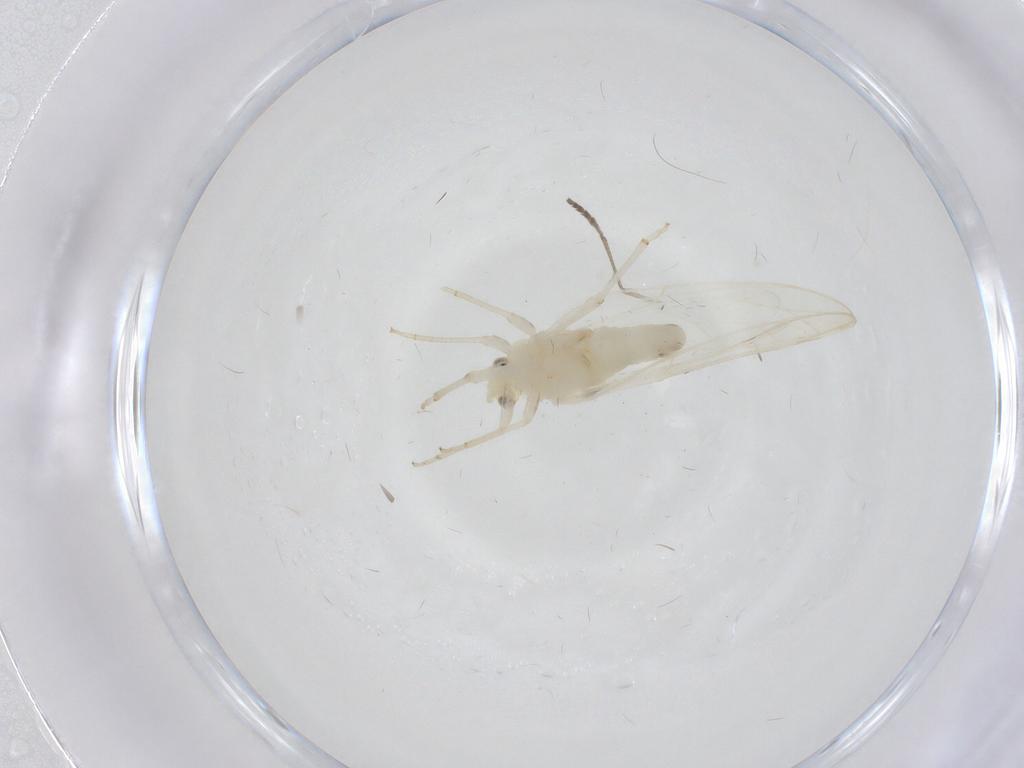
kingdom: Animalia
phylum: Arthropoda
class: Insecta
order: Diptera
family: Psychodidae
